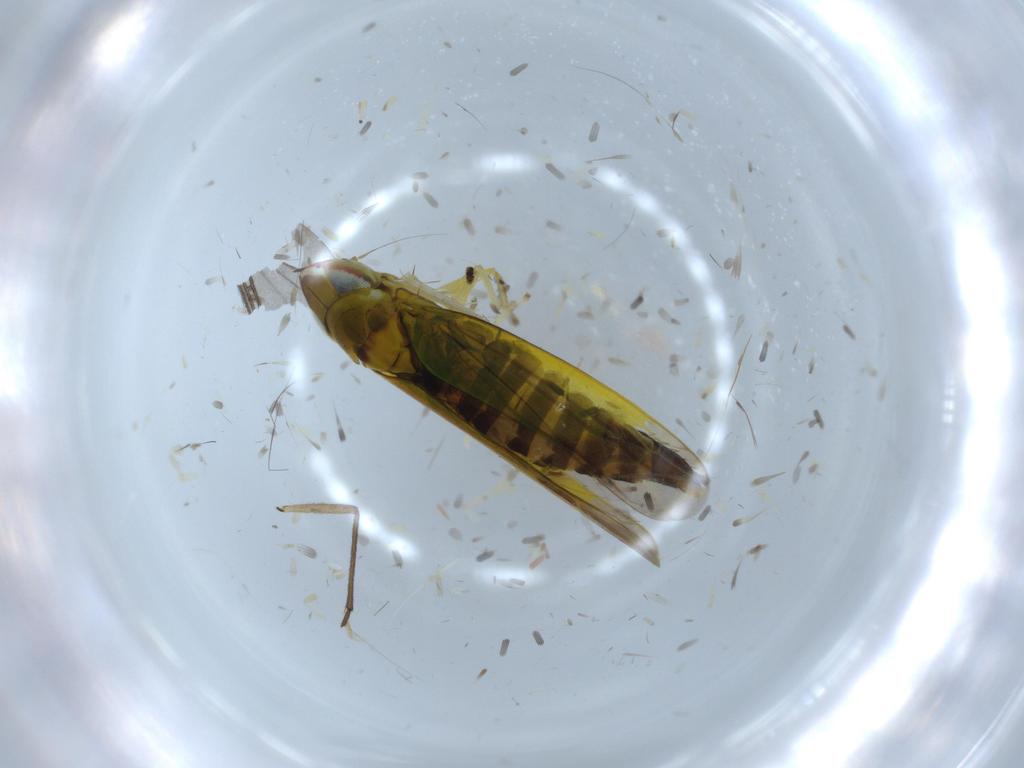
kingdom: Animalia
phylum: Arthropoda
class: Insecta
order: Hemiptera
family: Cicadellidae
